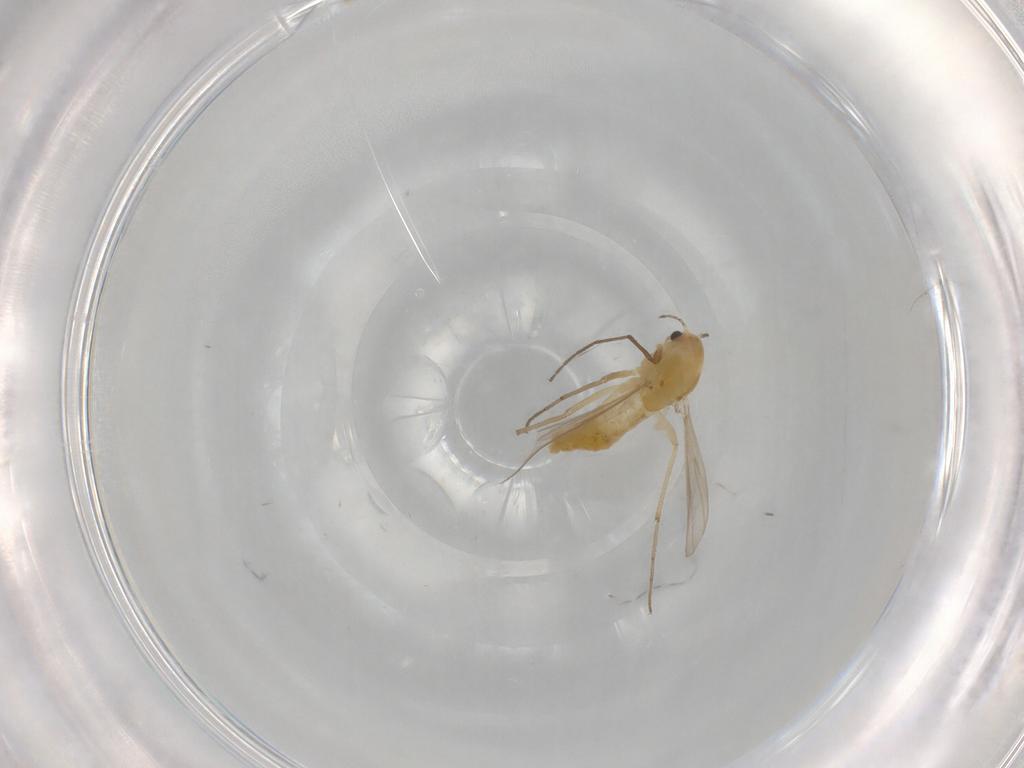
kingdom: Animalia
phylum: Arthropoda
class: Insecta
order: Diptera
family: Chironomidae
